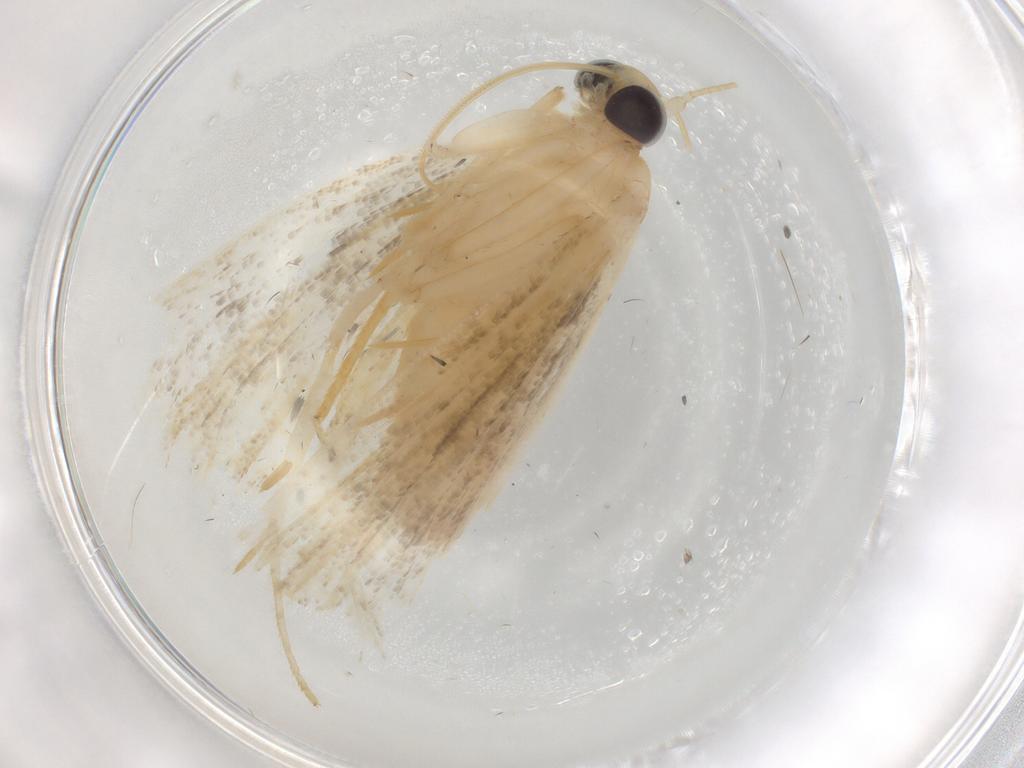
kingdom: Animalia
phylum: Arthropoda
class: Insecta
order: Lepidoptera
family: Erebidae
